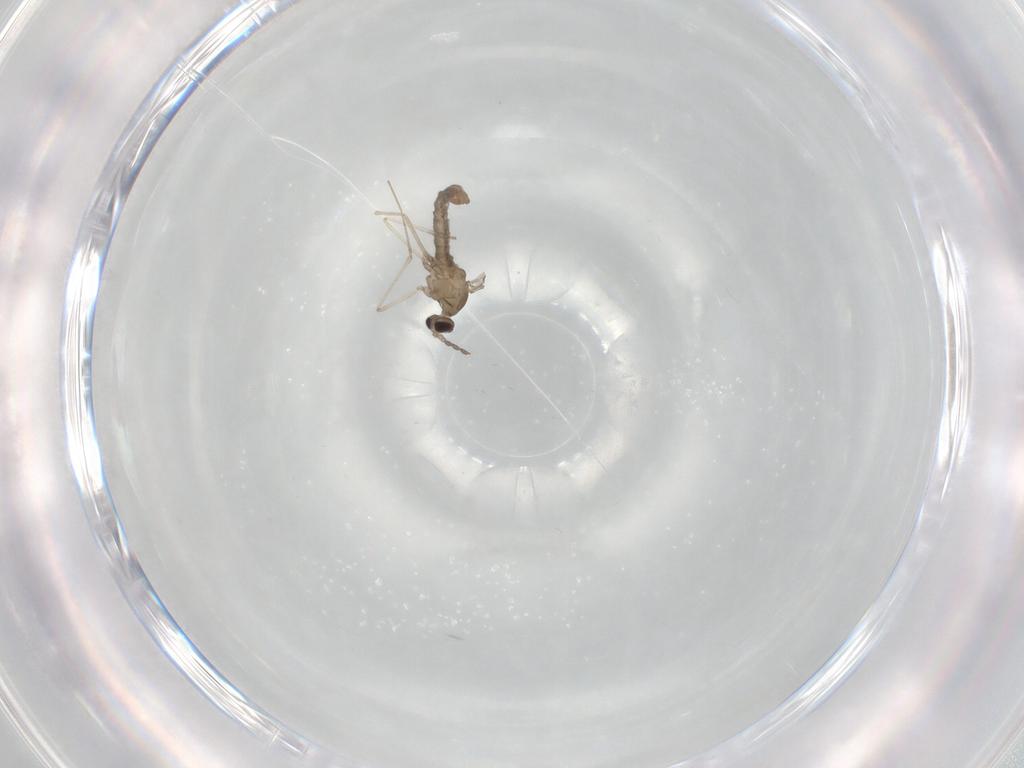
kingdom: Animalia
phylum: Arthropoda
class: Insecta
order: Diptera
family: Cecidomyiidae
